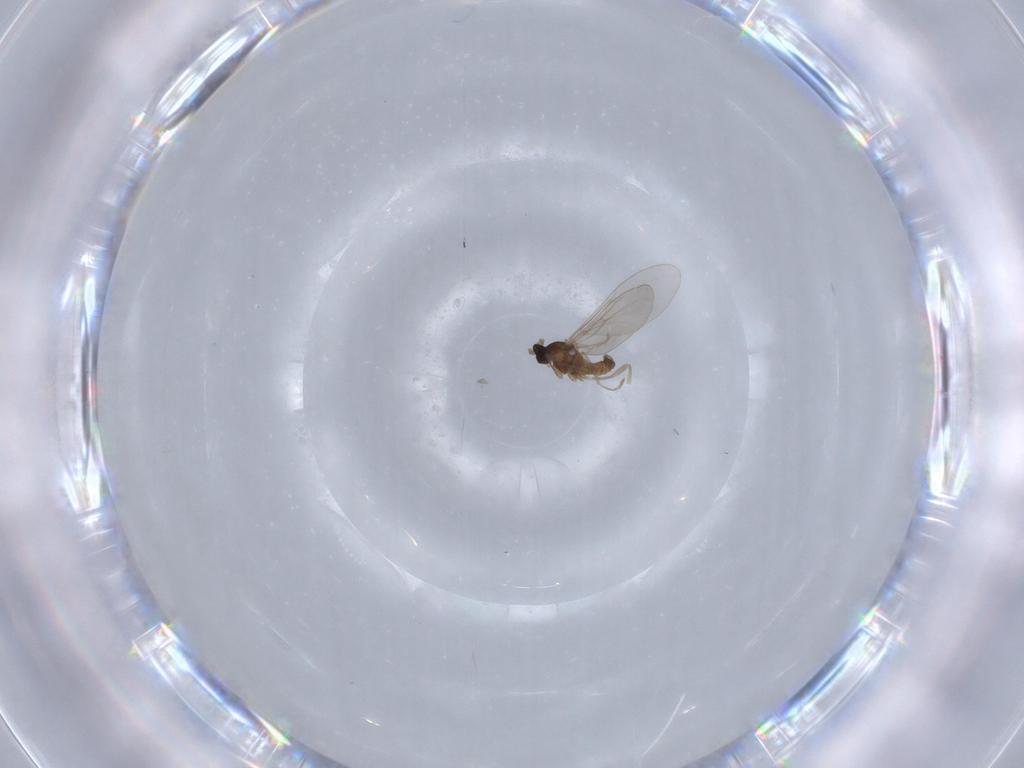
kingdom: Animalia
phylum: Arthropoda
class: Insecta
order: Diptera
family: Cecidomyiidae
